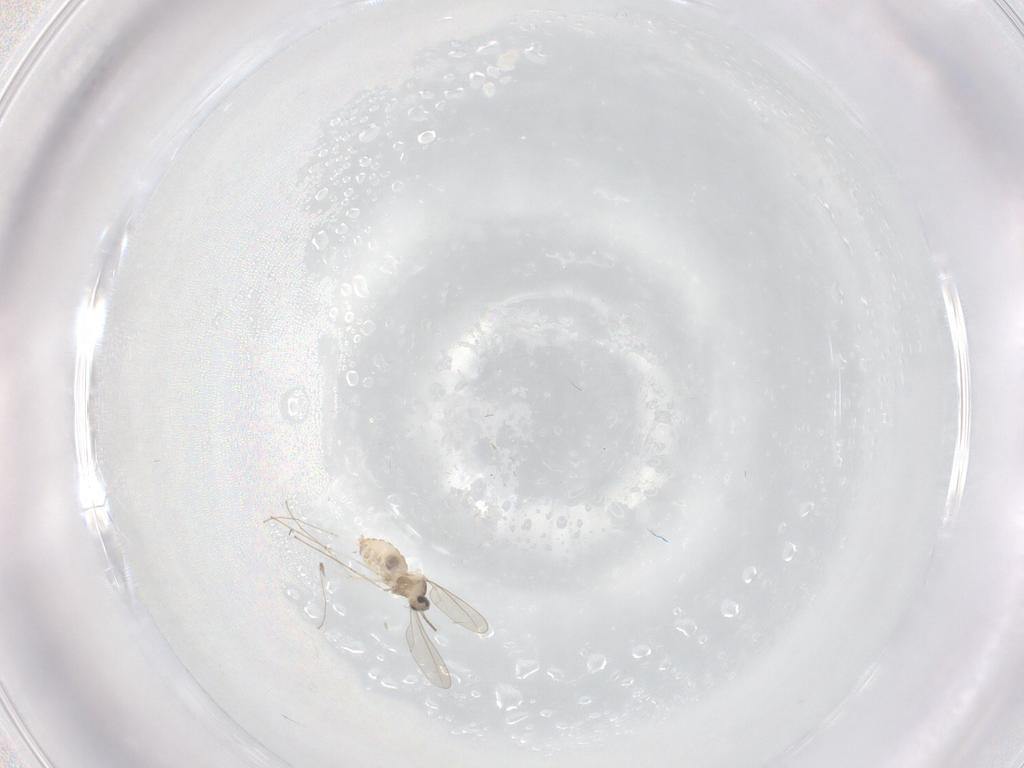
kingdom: Animalia
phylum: Arthropoda
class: Insecta
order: Diptera
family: Cecidomyiidae
